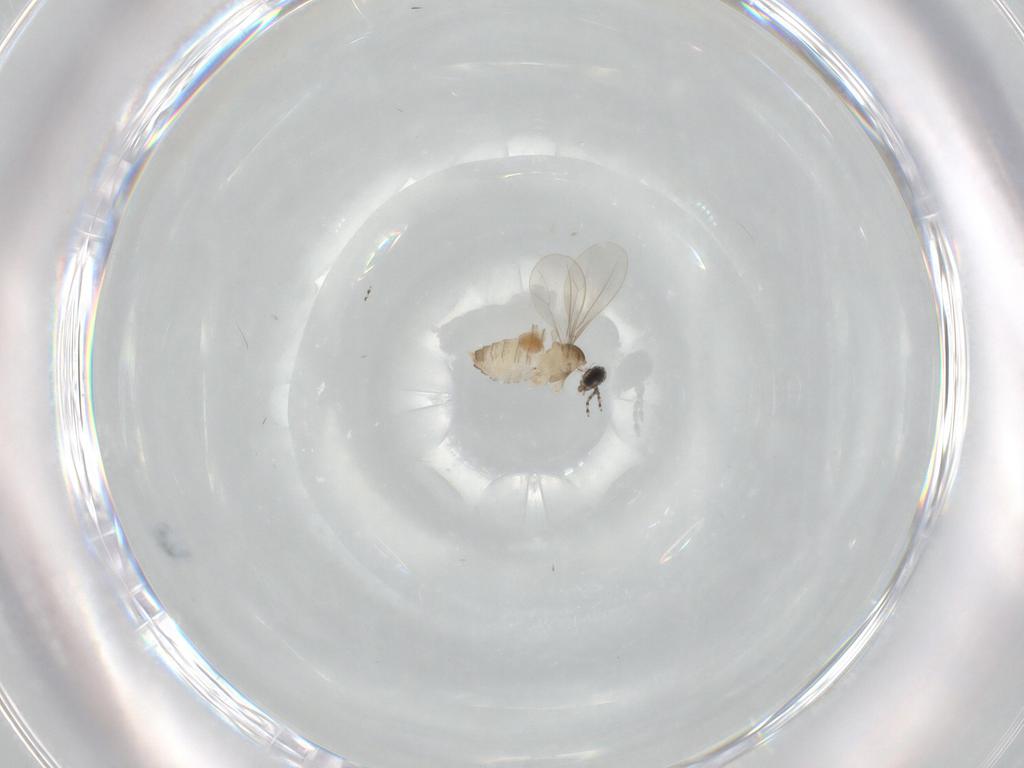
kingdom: Animalia
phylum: Arthropoda
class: Insecta
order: Diptera
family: Cecidomyiidae
